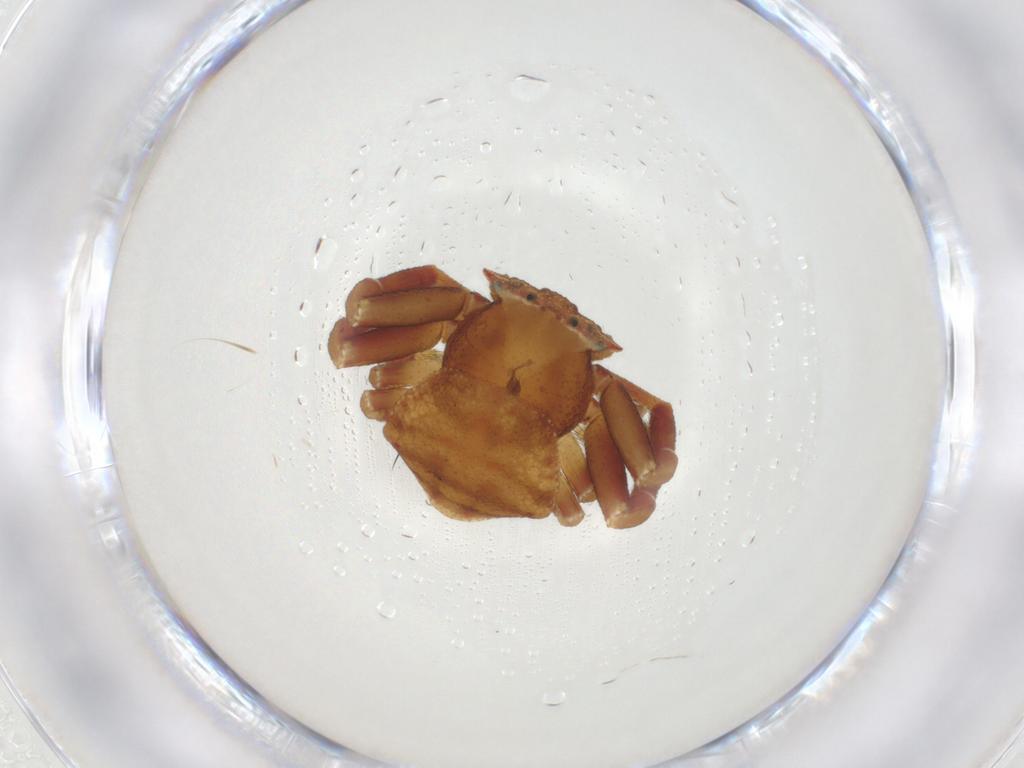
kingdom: Animalia
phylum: Arthropoda
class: Arachnida
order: Araneae
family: Thomisidae
